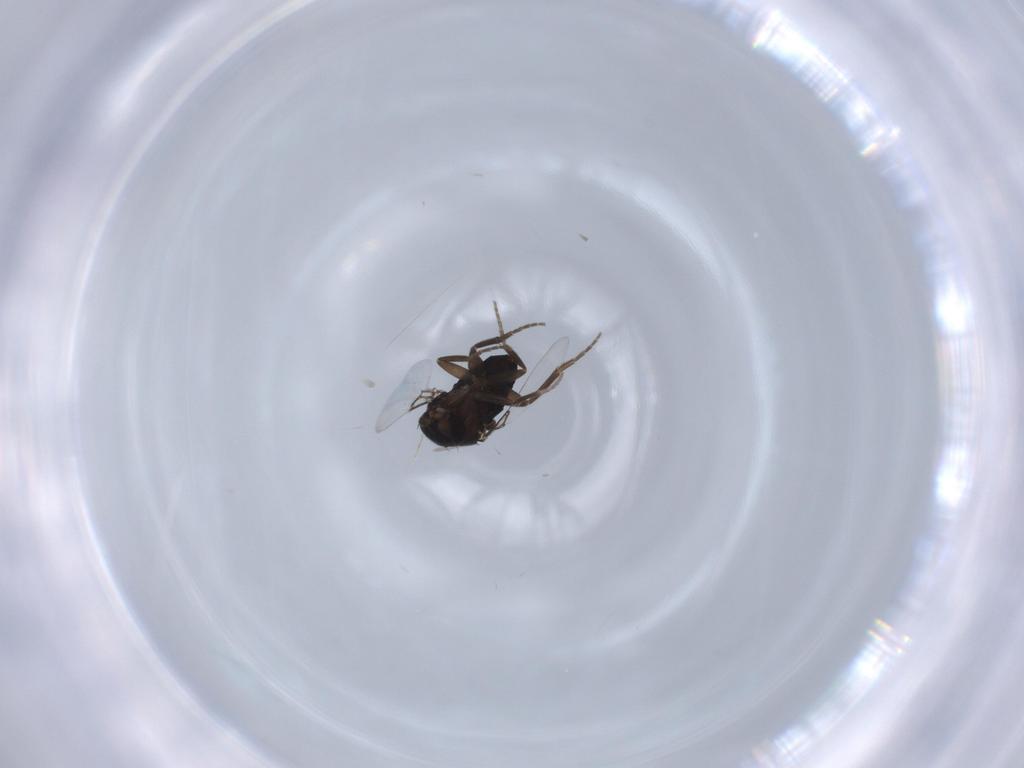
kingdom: Animalia
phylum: Arthropoda
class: Insecta
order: Diptera
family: Phoridae
